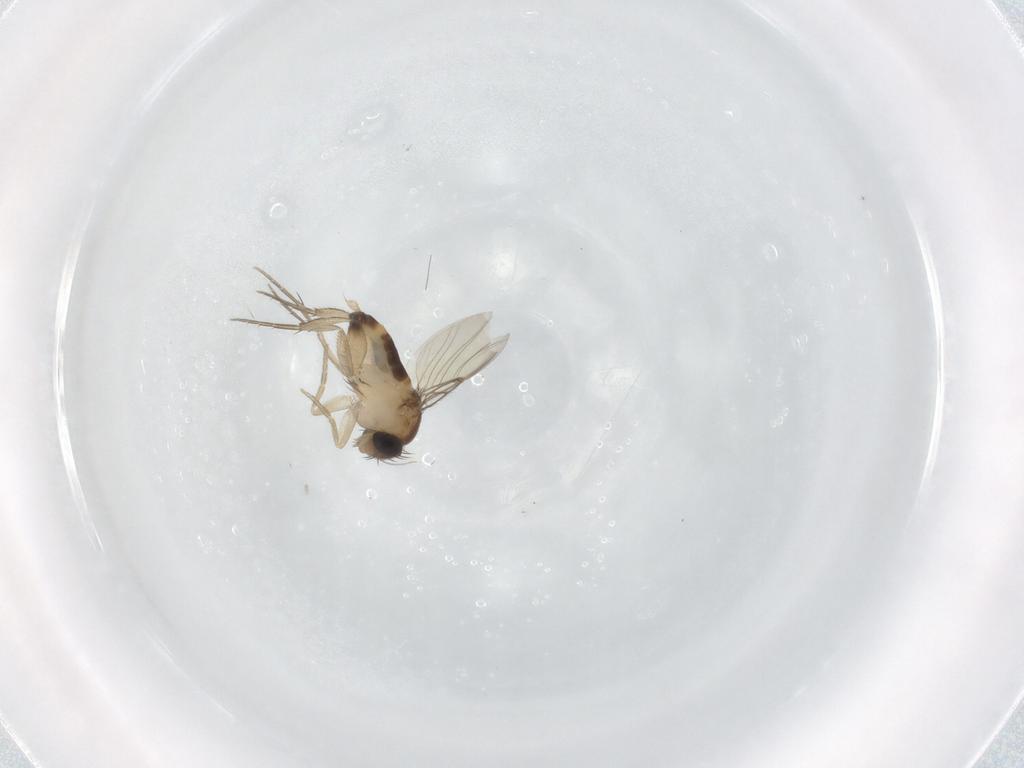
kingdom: Animalia
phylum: Arthropoda
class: Insecta
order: Diptera
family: Phoridae
